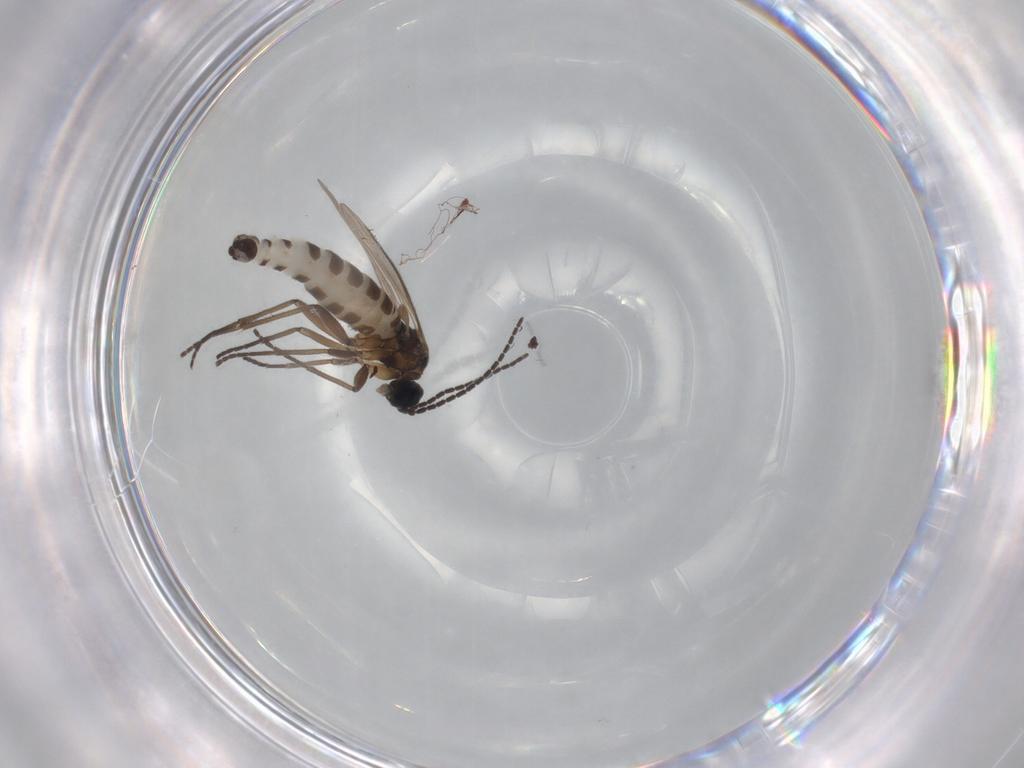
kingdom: Animalia
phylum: Arthropoda
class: Insecta
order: Diptera
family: Sciaridae
